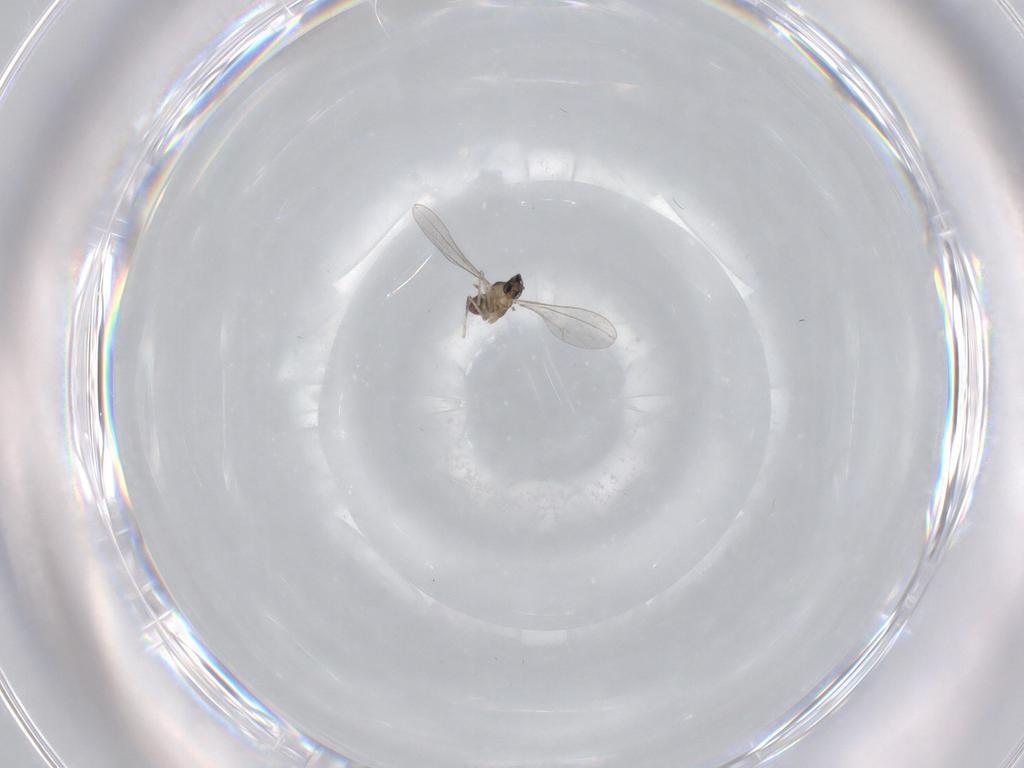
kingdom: Animalia
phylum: Arthropoda
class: Insecta
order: Diptera
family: Cecidomyiidae
